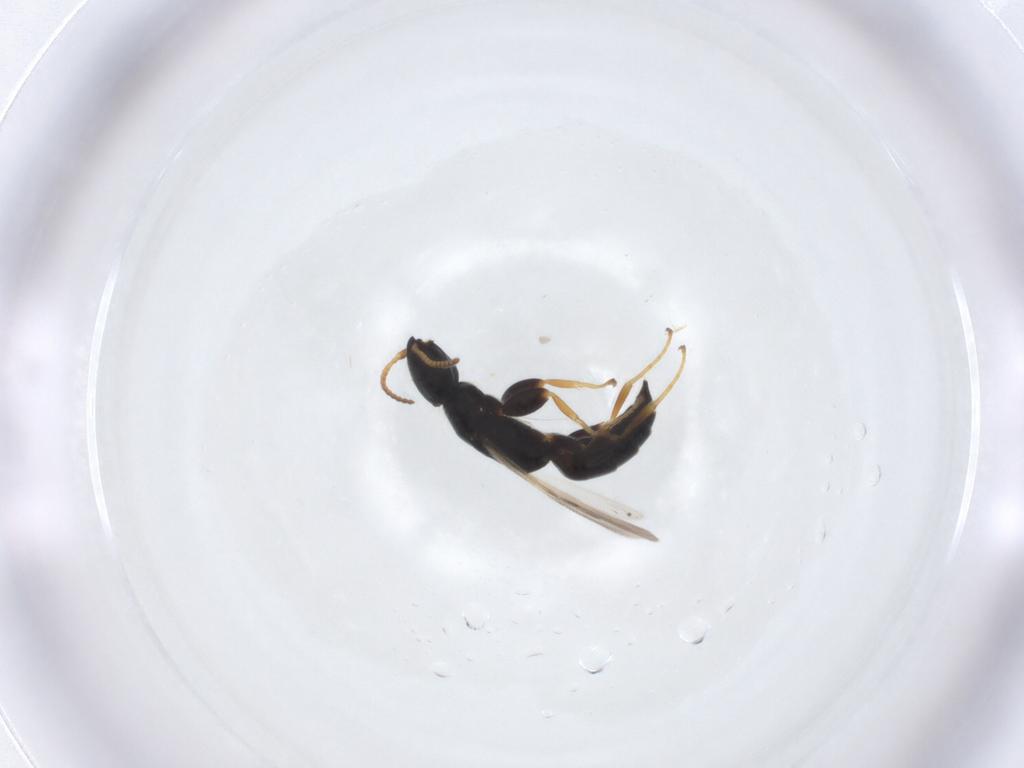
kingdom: Animalia
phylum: Arthropoda
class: Insecta
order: Hymenoptera
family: Bethylidae
